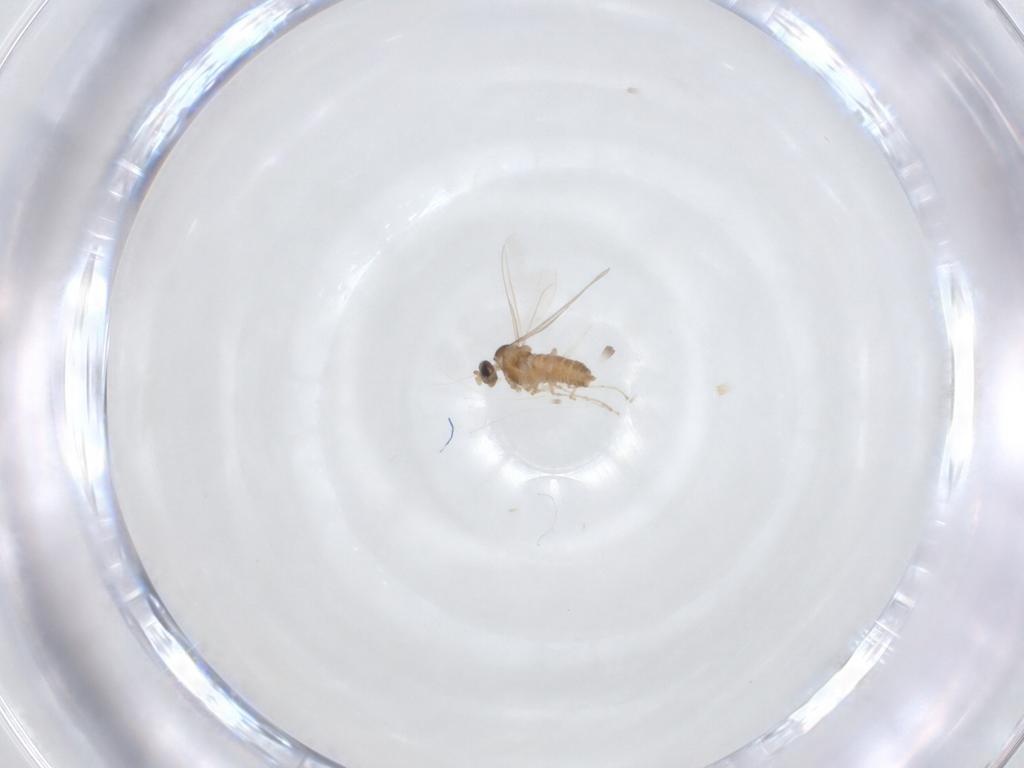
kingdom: Animalia
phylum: Arthropoda
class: Insecta
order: Diptera
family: Cecidomyiidae
